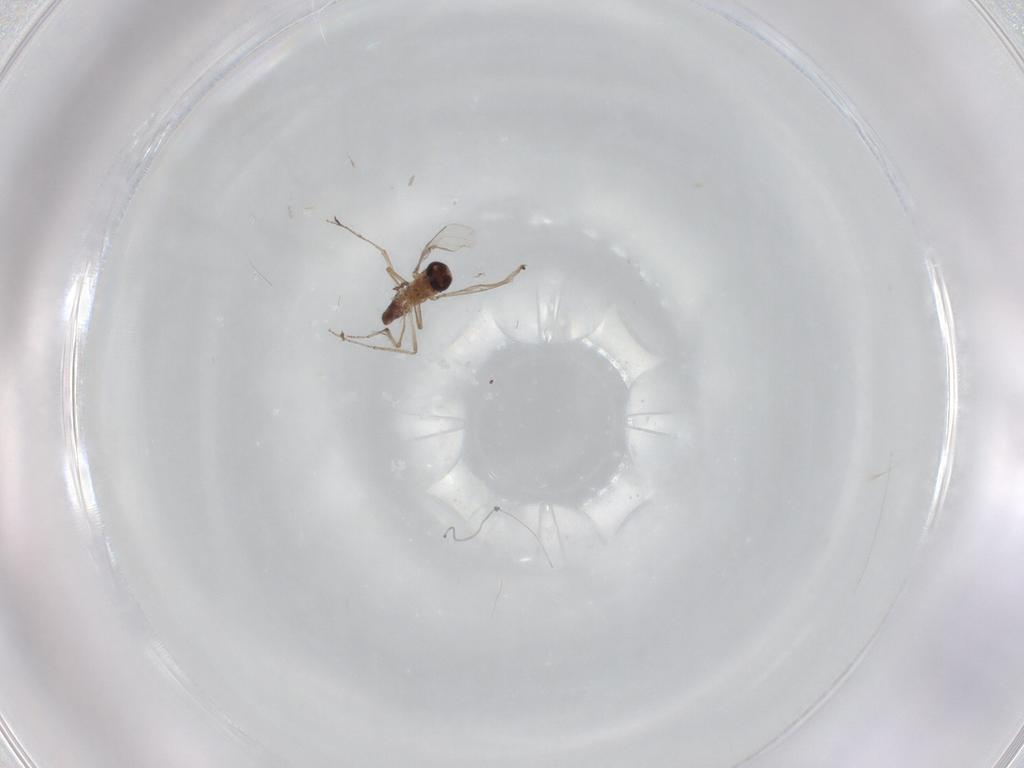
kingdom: Animalia
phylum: Arthropoda
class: Insecta
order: Diptera
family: Cecidomyiidae
